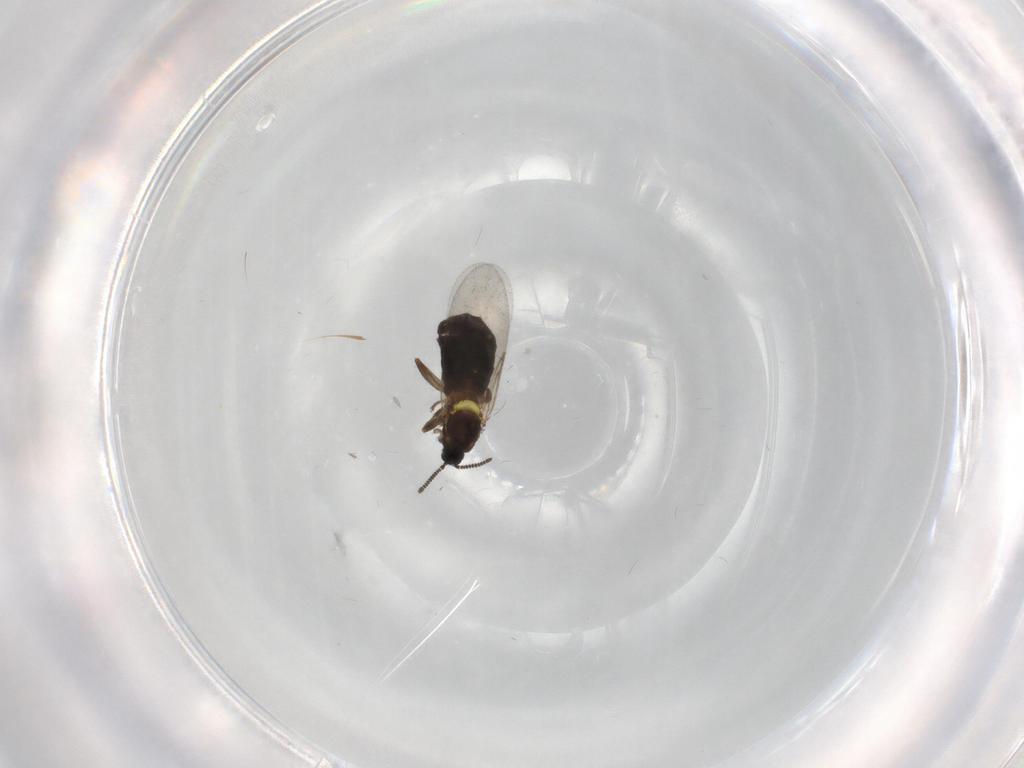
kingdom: Animalia
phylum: Arthropoda
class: Insecta
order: Diptera
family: Scatopsidae
